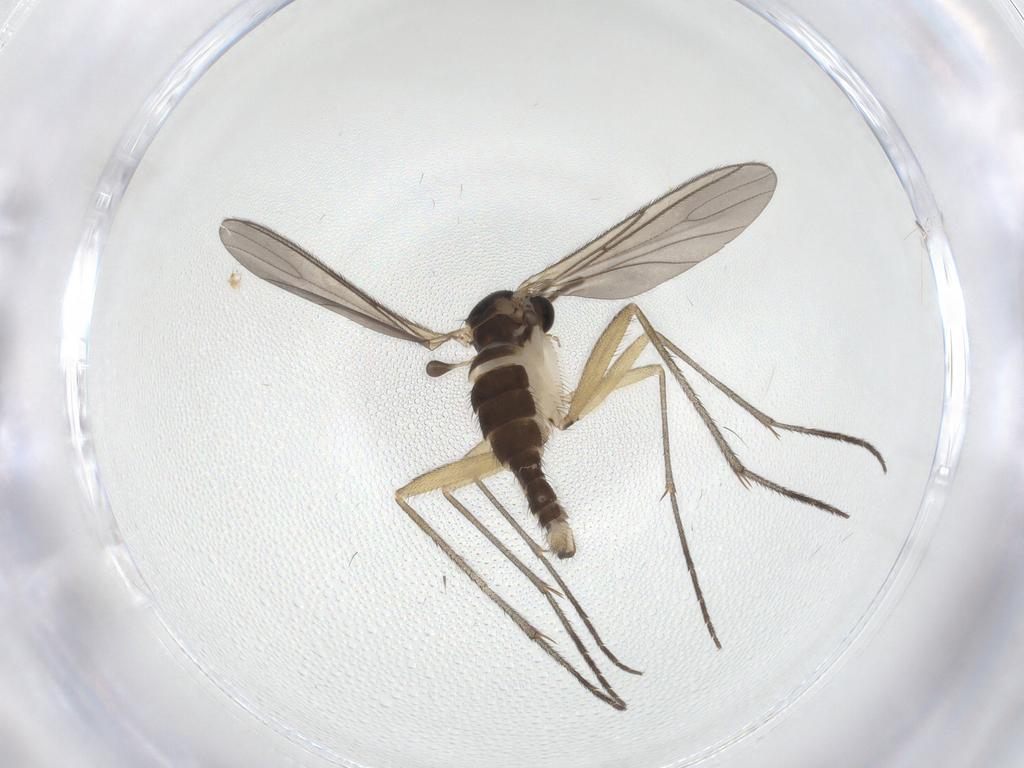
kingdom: Animalia
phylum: Arthropoda
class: Insecta
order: Diptera
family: Sciaridae
